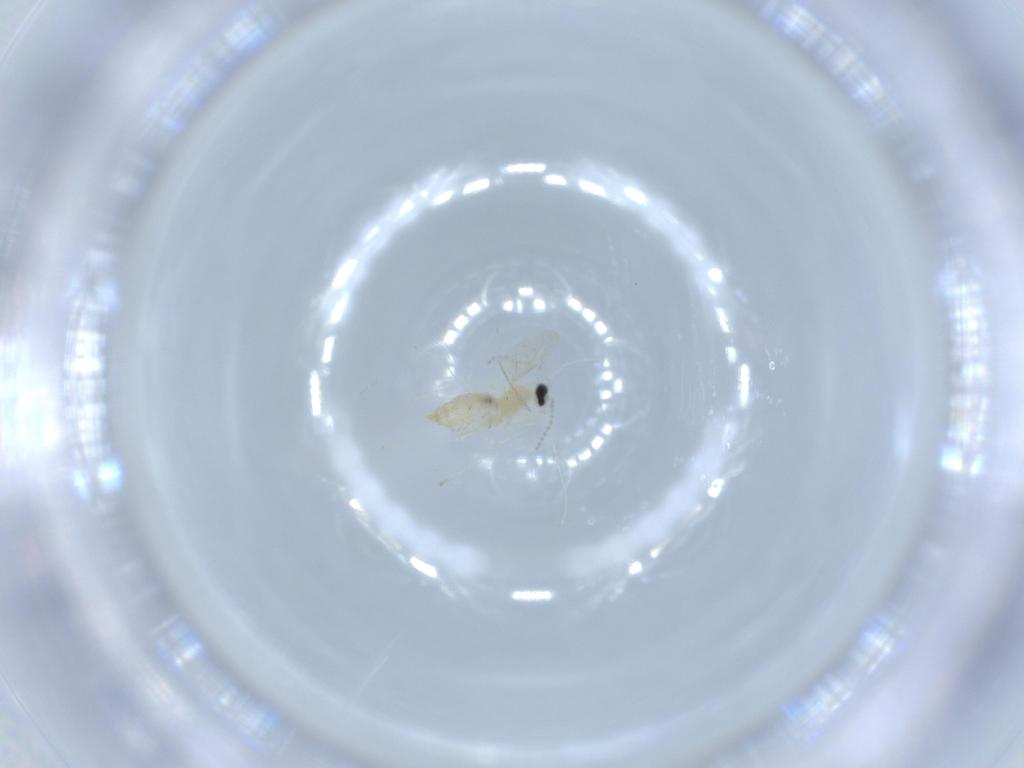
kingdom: Animalia
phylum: Arthropoda
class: Insecta
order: Diptera
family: Cecidomyiidae
